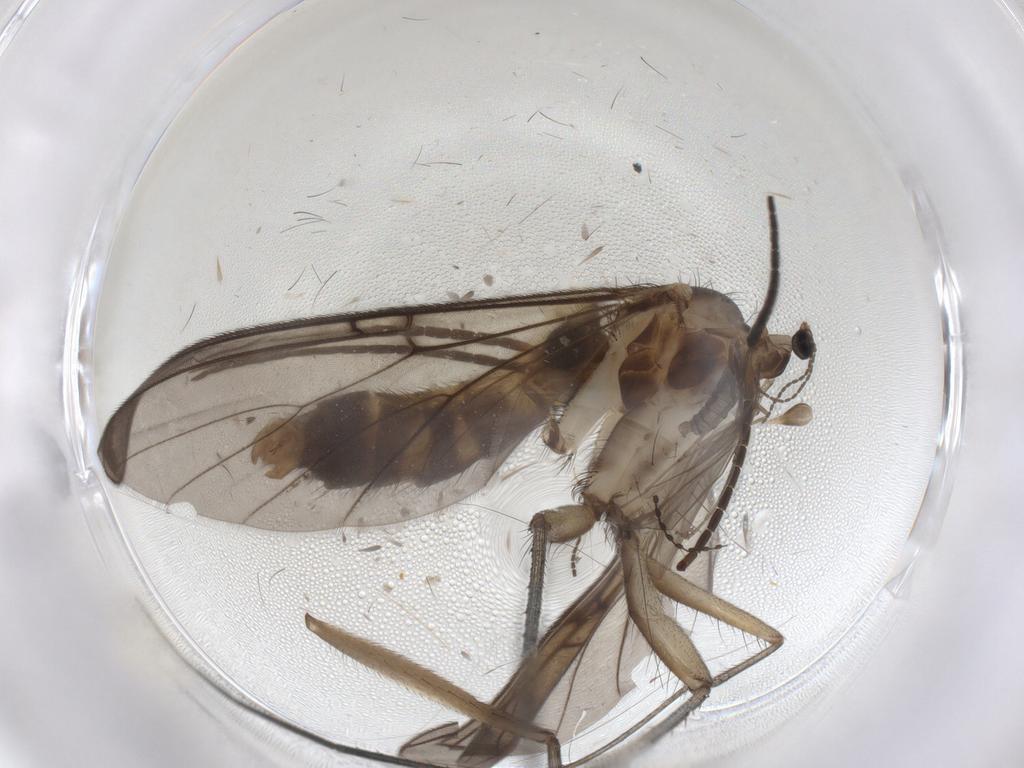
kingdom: Animalia
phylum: Arthropoda
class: Insecta
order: Diptera
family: Mycetophilidae
